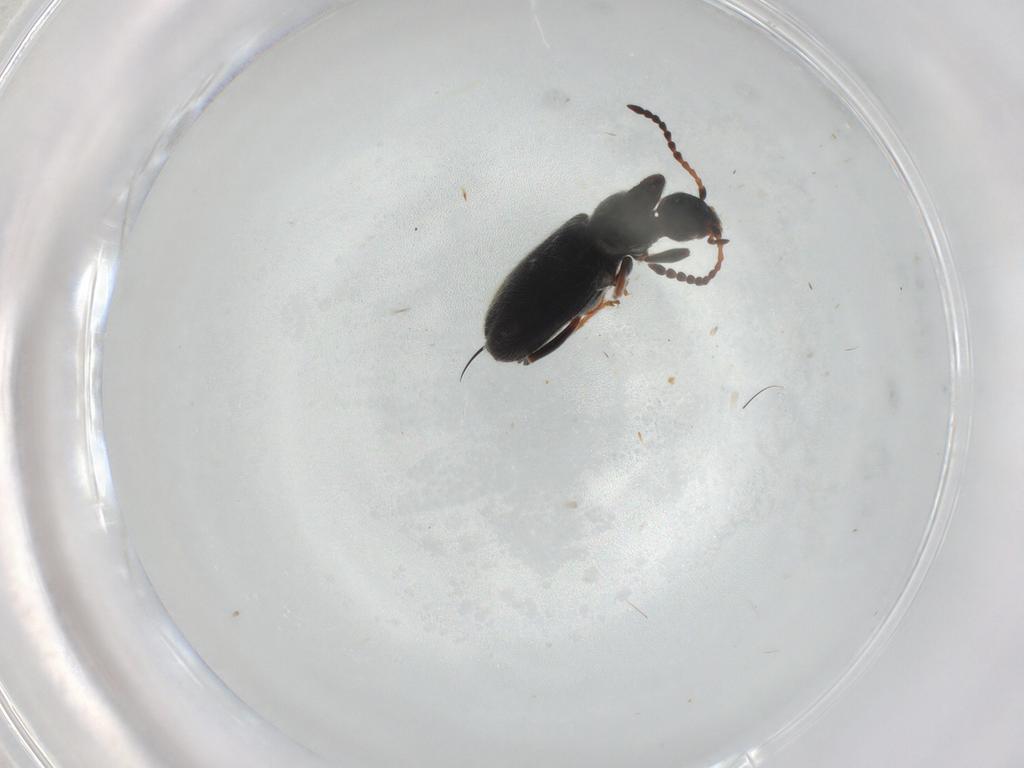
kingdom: Animalia
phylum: Arthropoda
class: Insecta
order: Coleoptera
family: Anthicidae
